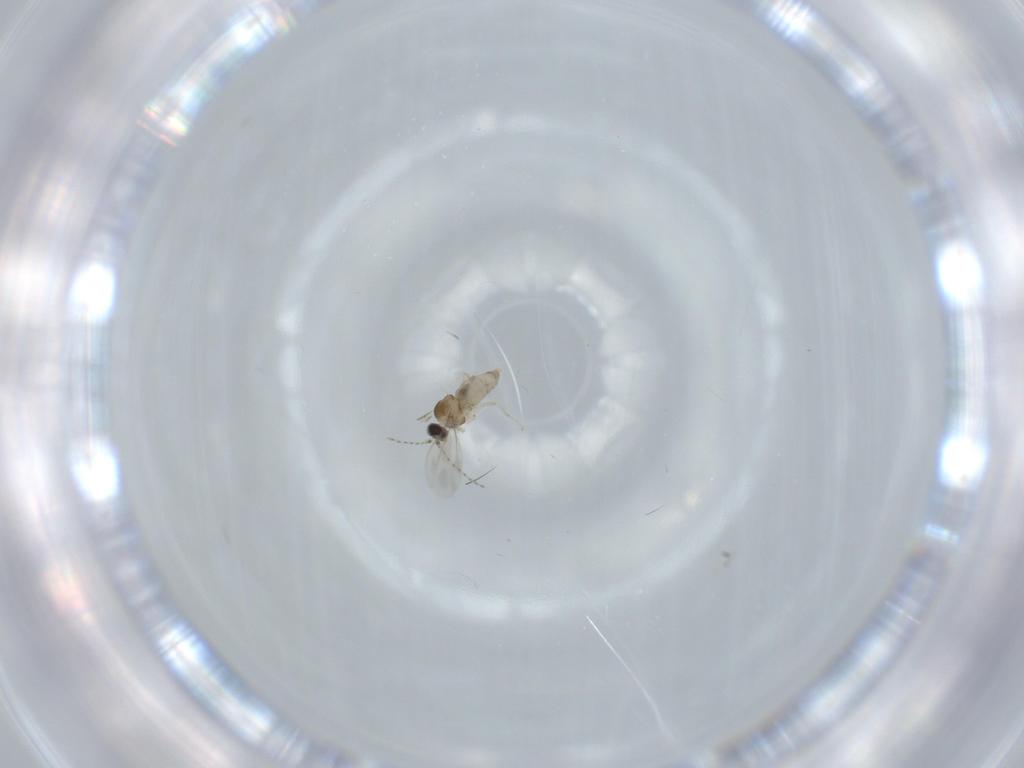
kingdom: Animalia
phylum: Arthropoda
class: Insecta
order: Diptera
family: Cecidomyiidae
